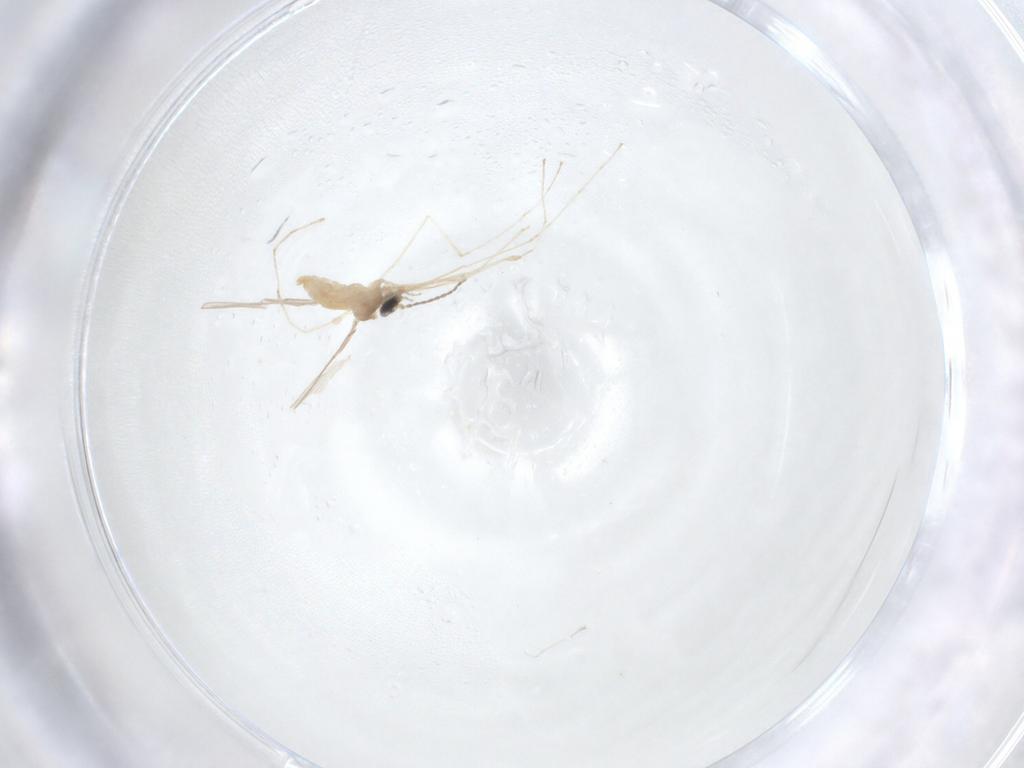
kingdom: Animalia
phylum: Arthropoda
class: Insecta
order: Diptera
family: Cecidomyiidae
